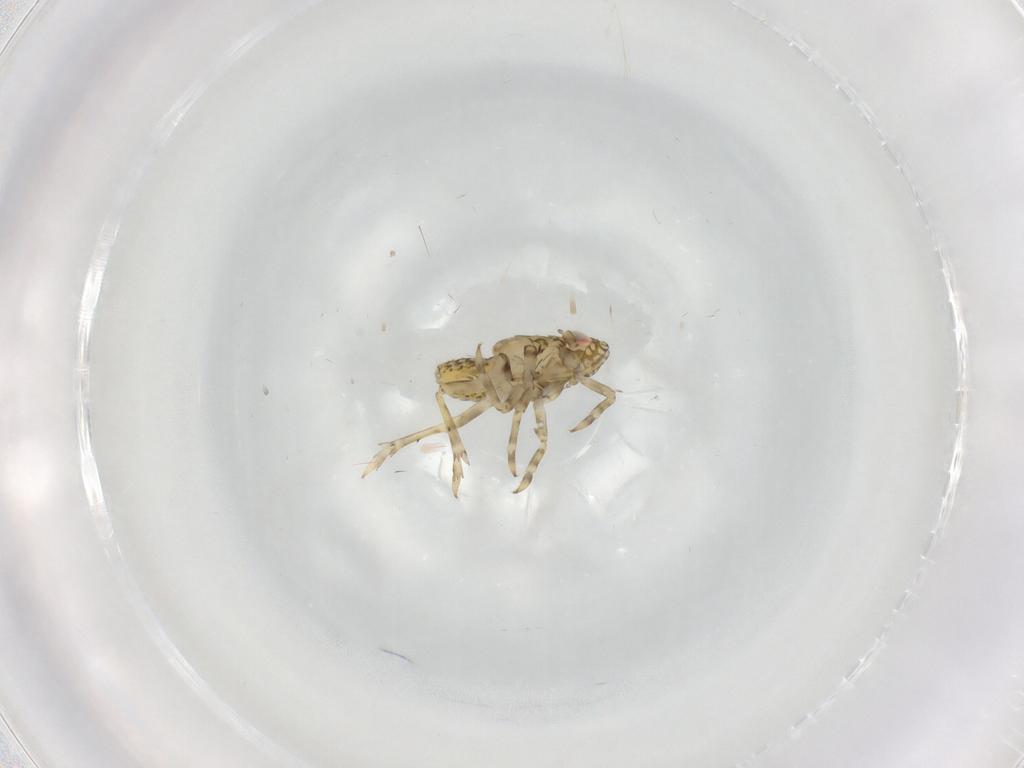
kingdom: Animalia
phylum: Arthropoda
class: Insecta
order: Hemiptera
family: Delphacidae
